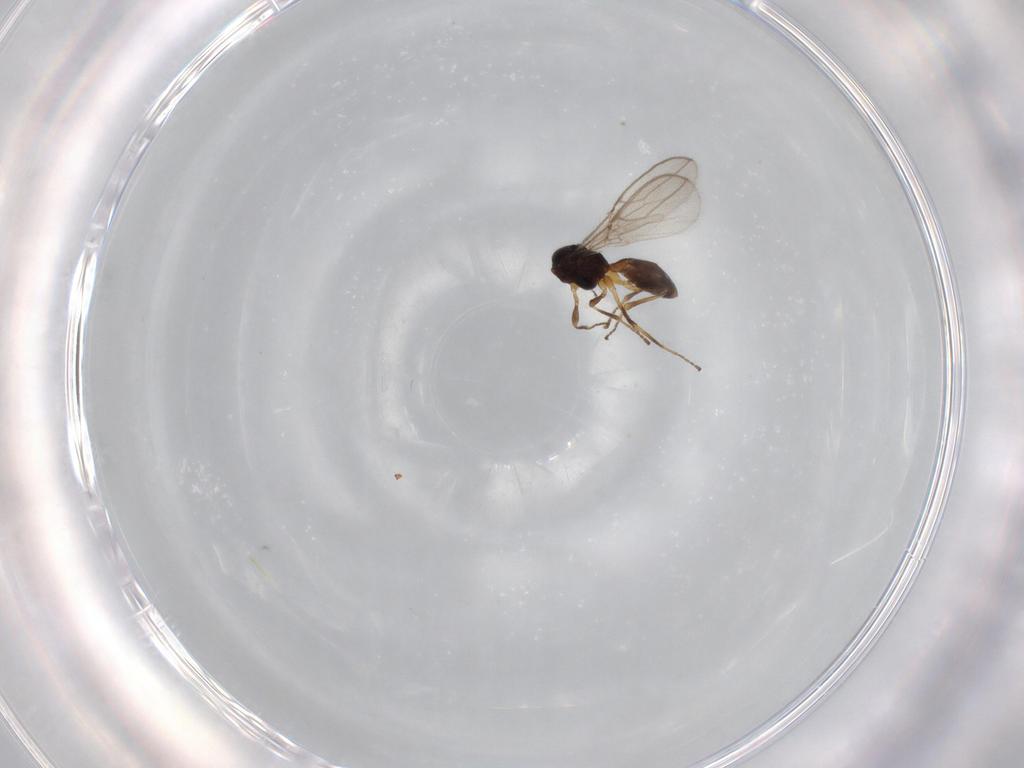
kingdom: Animalia
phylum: Arthropoda
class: Insecta
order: Hymenoptera
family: Braconidae
